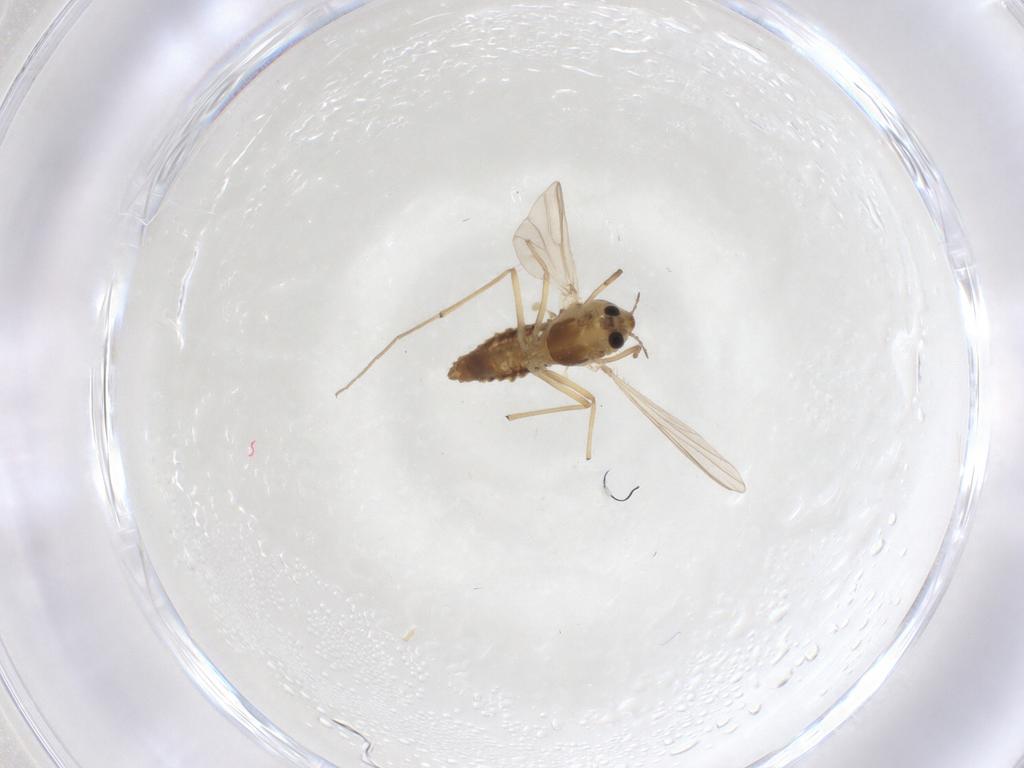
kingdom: Animalia
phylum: Arthropoda
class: Insecta
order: Diptera
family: Chironomidae
